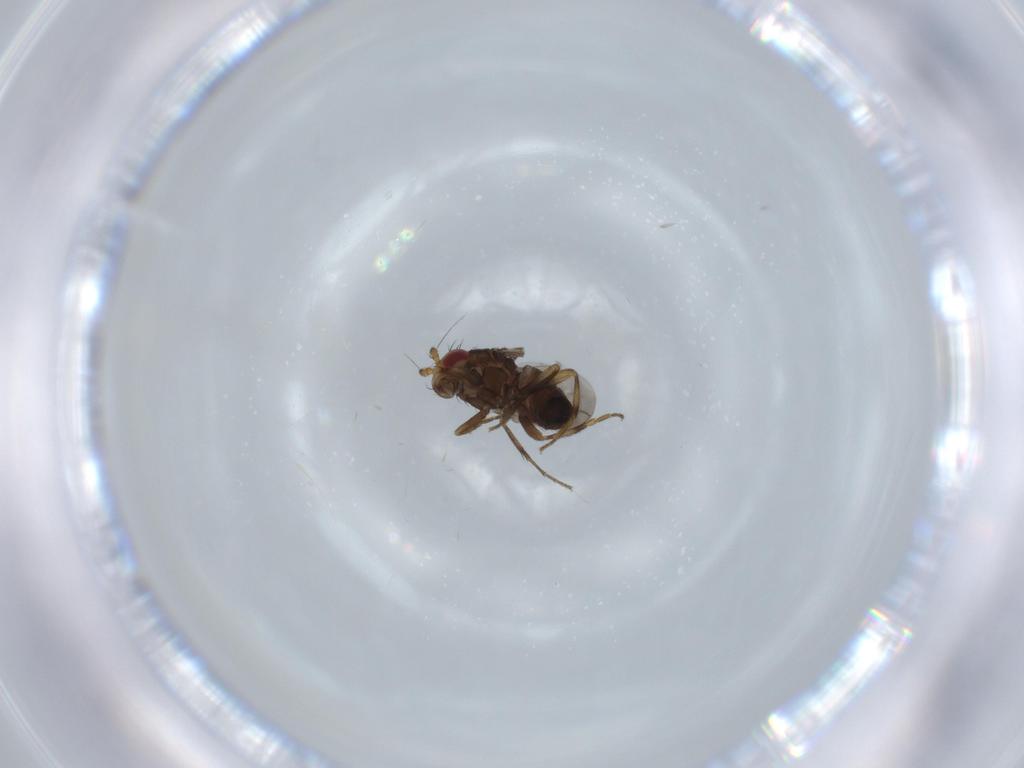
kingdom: Animalia
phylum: Arthropoda
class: Insecta
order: Diptera
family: Sphaeroceridae
